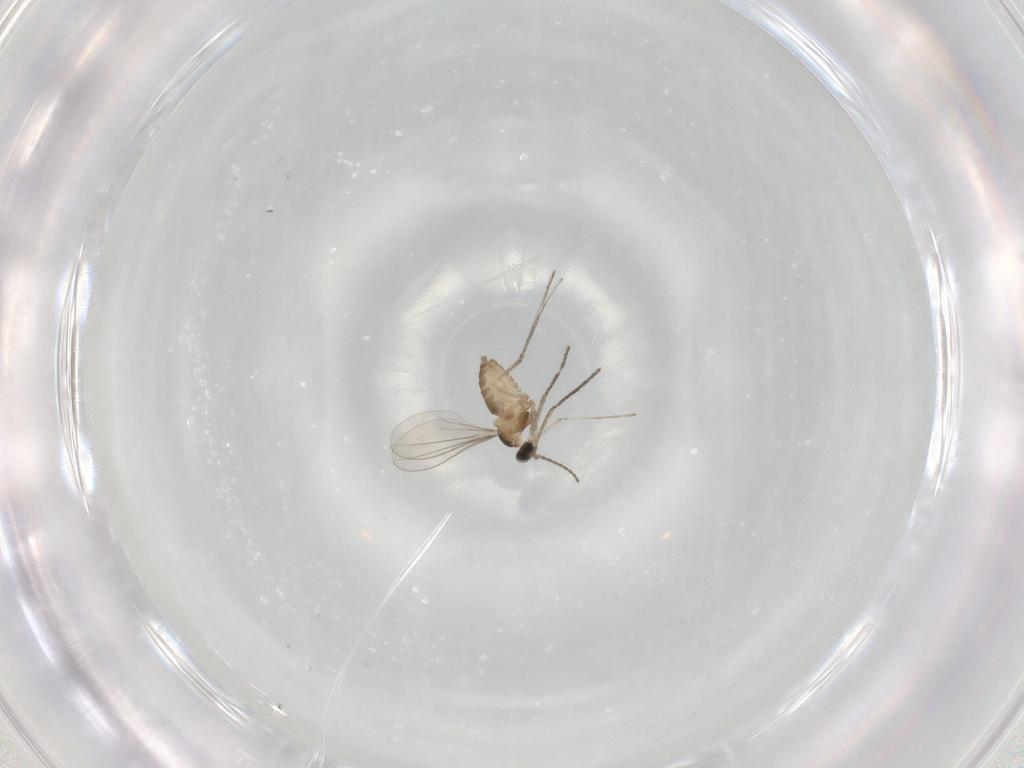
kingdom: Animalia
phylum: Arthropoda
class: Insecta
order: Diptera
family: Cecidomyiidae
